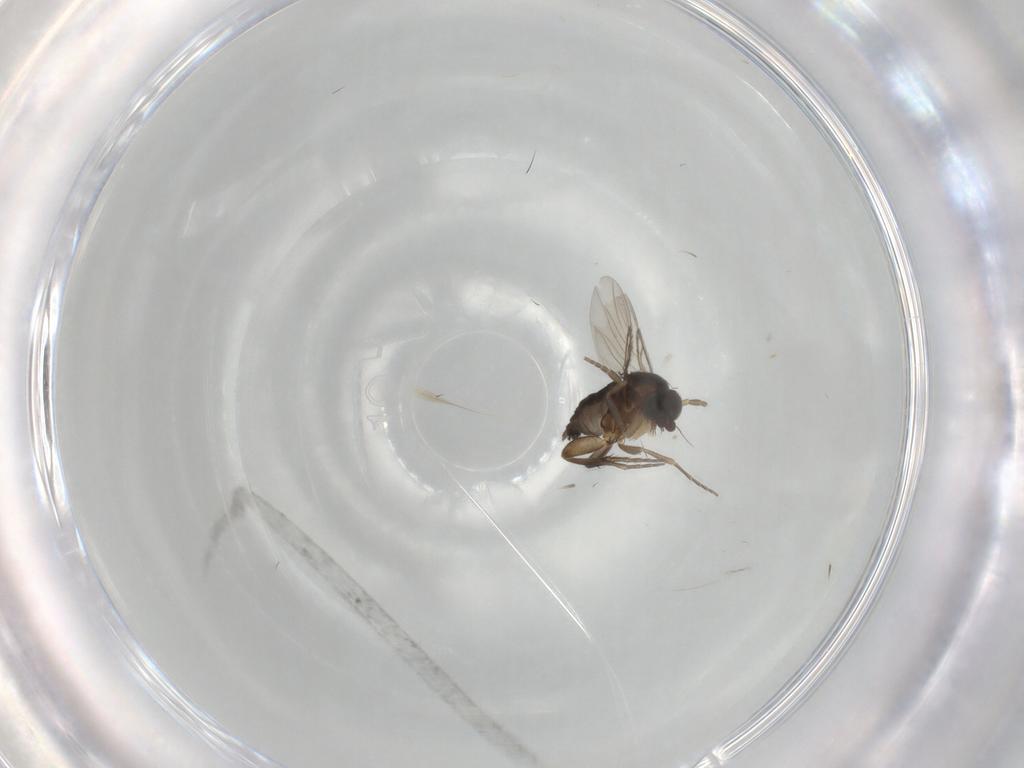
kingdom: Animalia
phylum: Arthropoda
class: Insecta
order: Diptera
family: Phoridae
